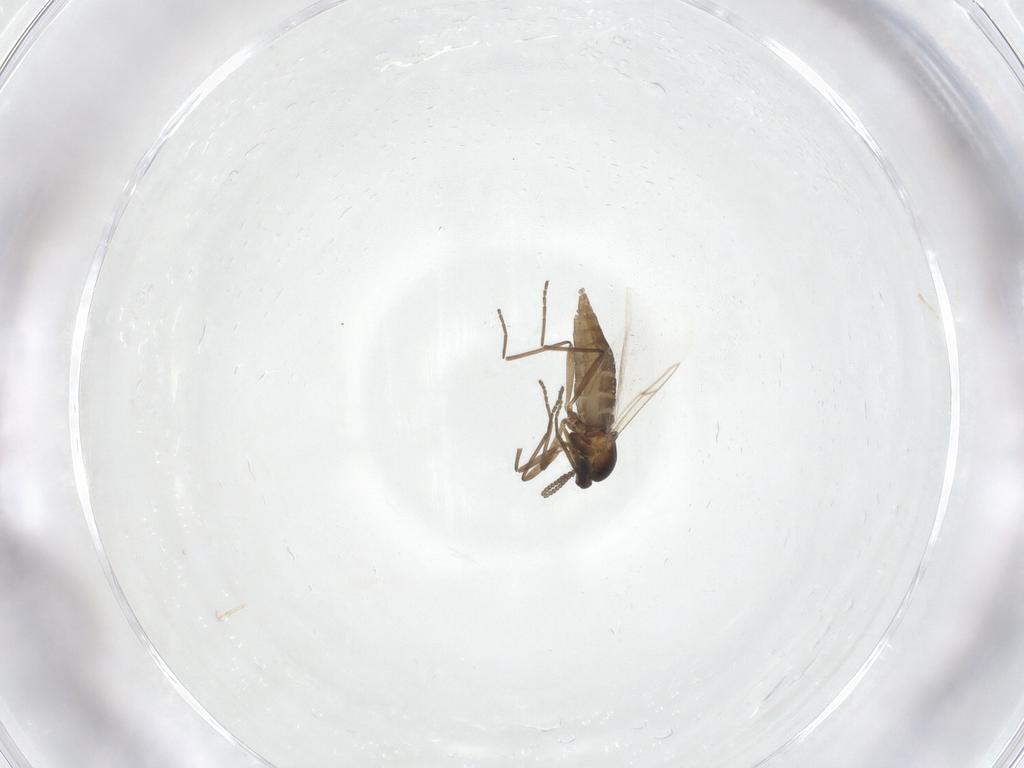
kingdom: Animalia
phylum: Arthropoda
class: Insecta
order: Diptera
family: Cecidomyiidae
